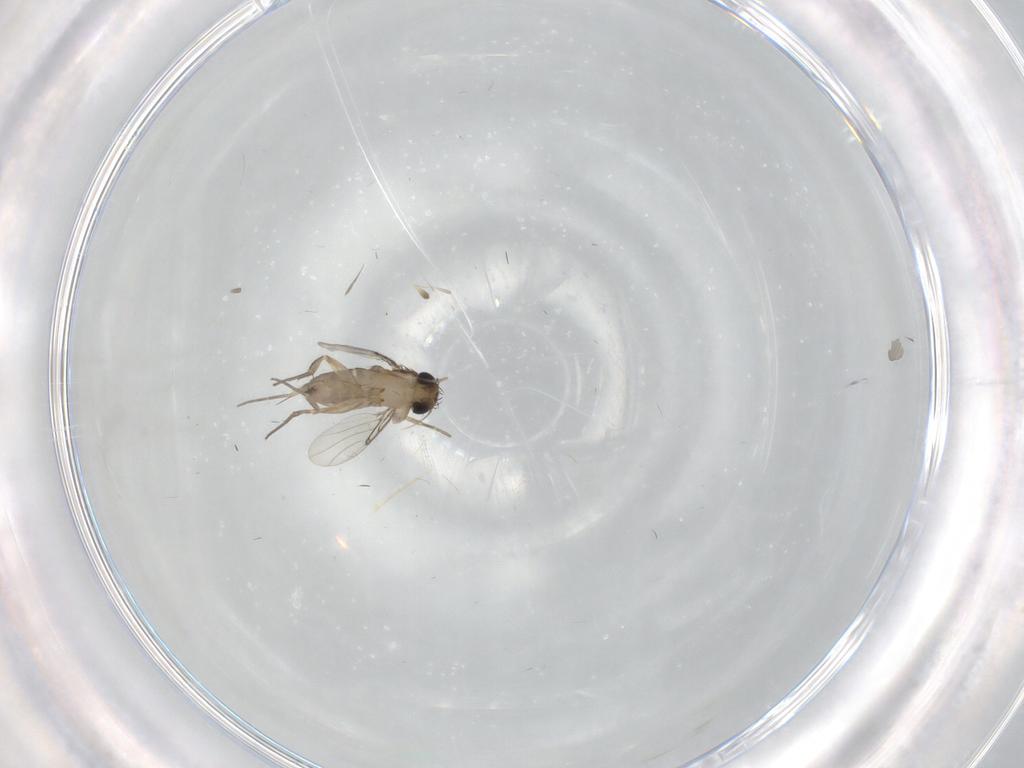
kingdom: Animalia
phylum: Arthropoda
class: Insecta
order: Diptera
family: Phoridae
